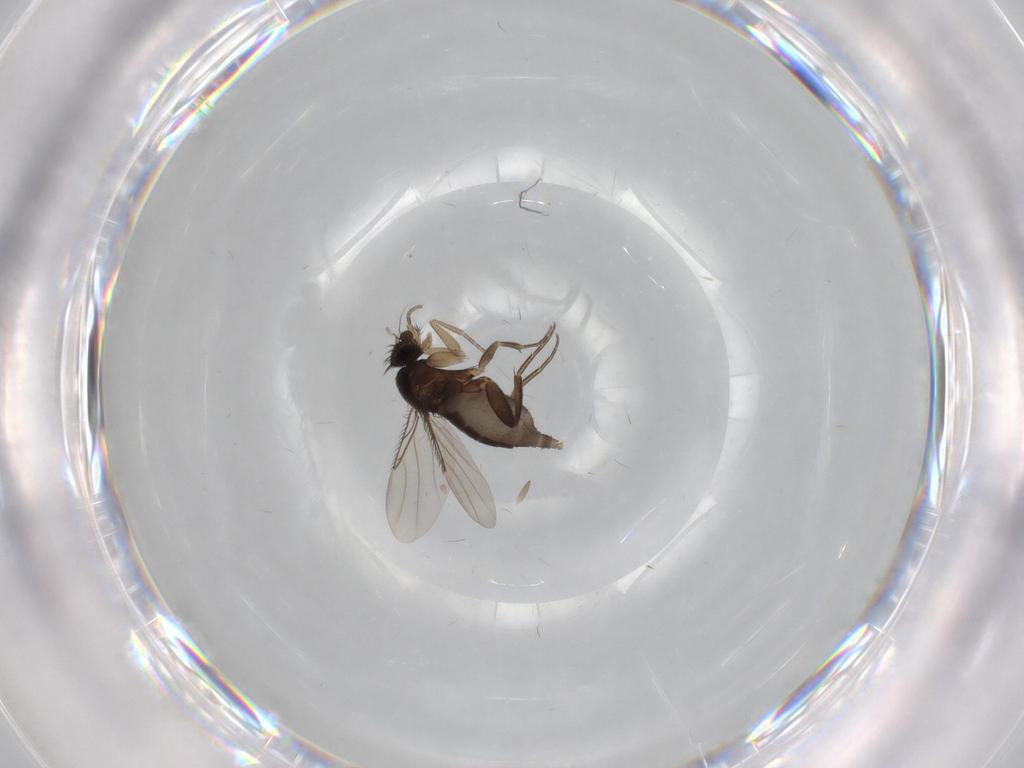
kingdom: Animalia
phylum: Arthropoda
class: Insecta
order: Diptera
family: Phoridae
